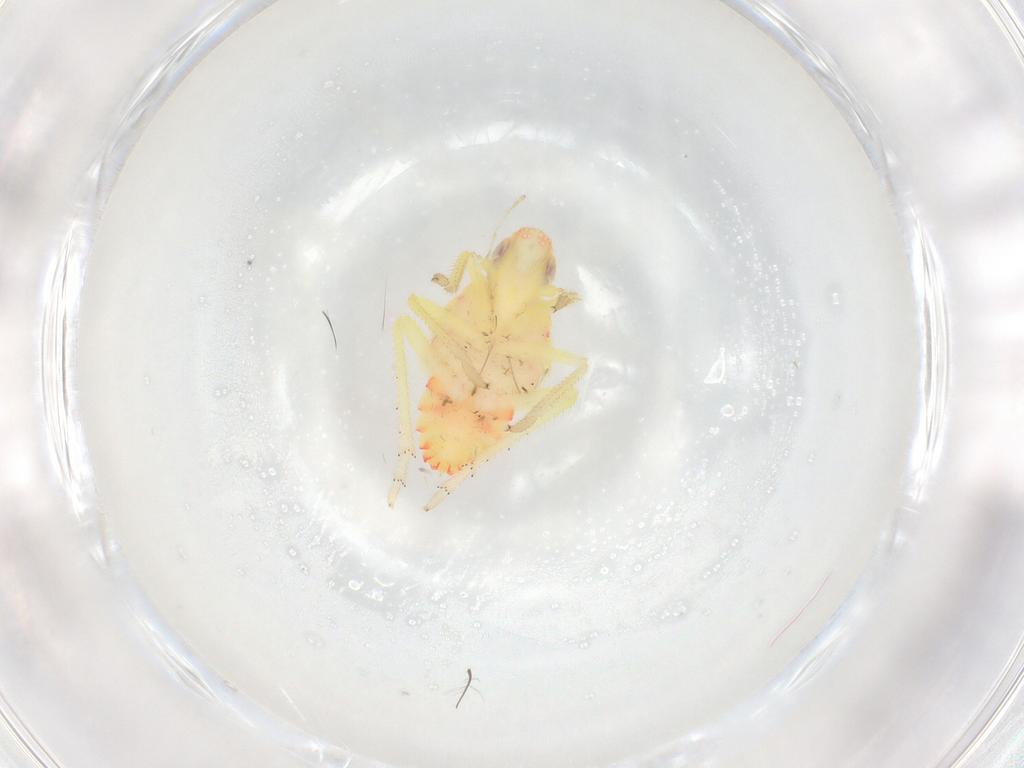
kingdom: Animalia
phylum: Arthropoda
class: Insecta
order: Hemiptera
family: Tropiduchidae
